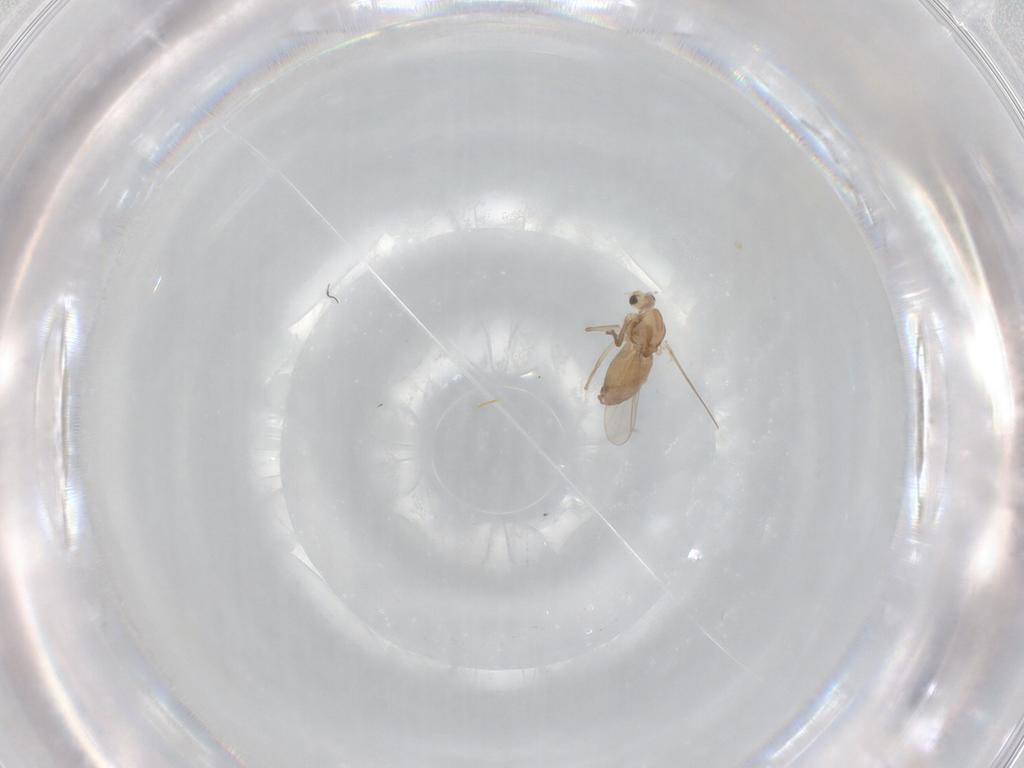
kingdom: Animalia
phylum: Arthropoda
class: Insecta
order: Diptera
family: Chironomidae
